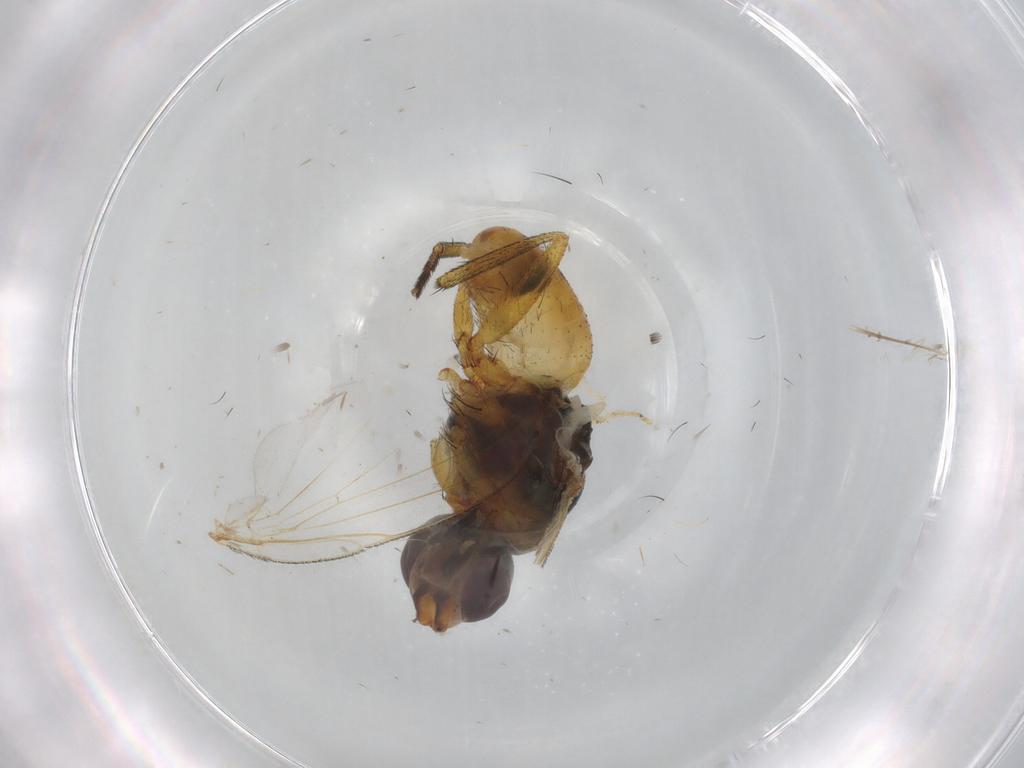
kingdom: Animalia
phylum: Arthropoda
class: Insecta
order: Diptera
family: Muscidae
